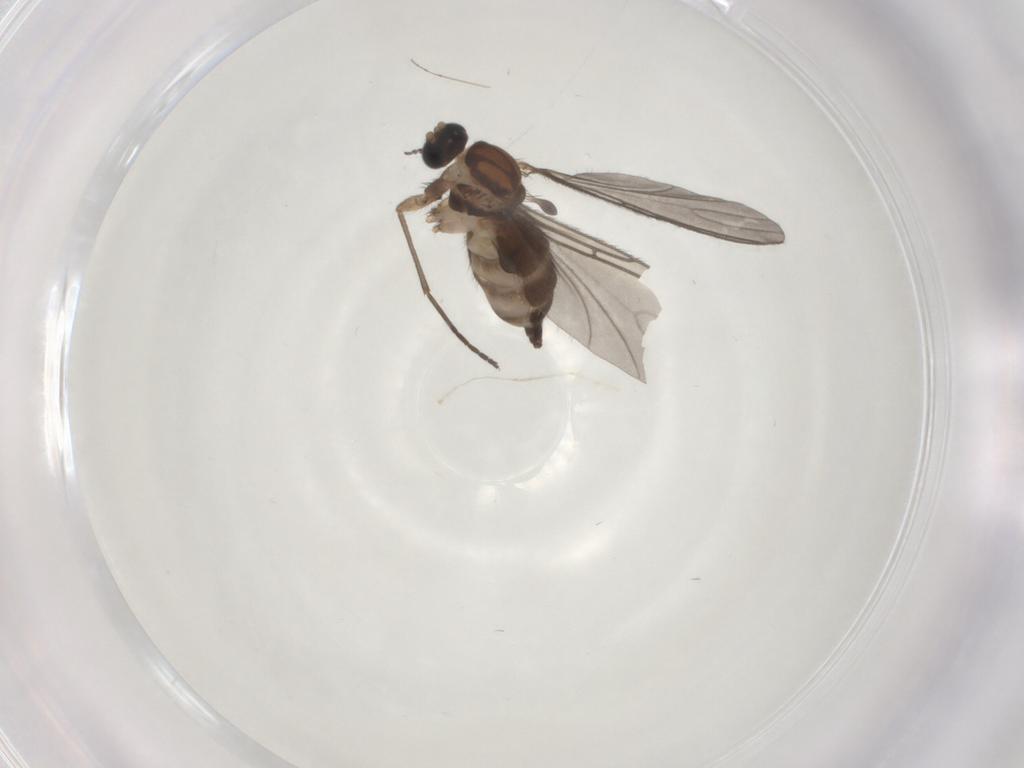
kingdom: Animalia
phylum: Arthropoda
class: Insecta
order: Diptera
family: Sciaridae
